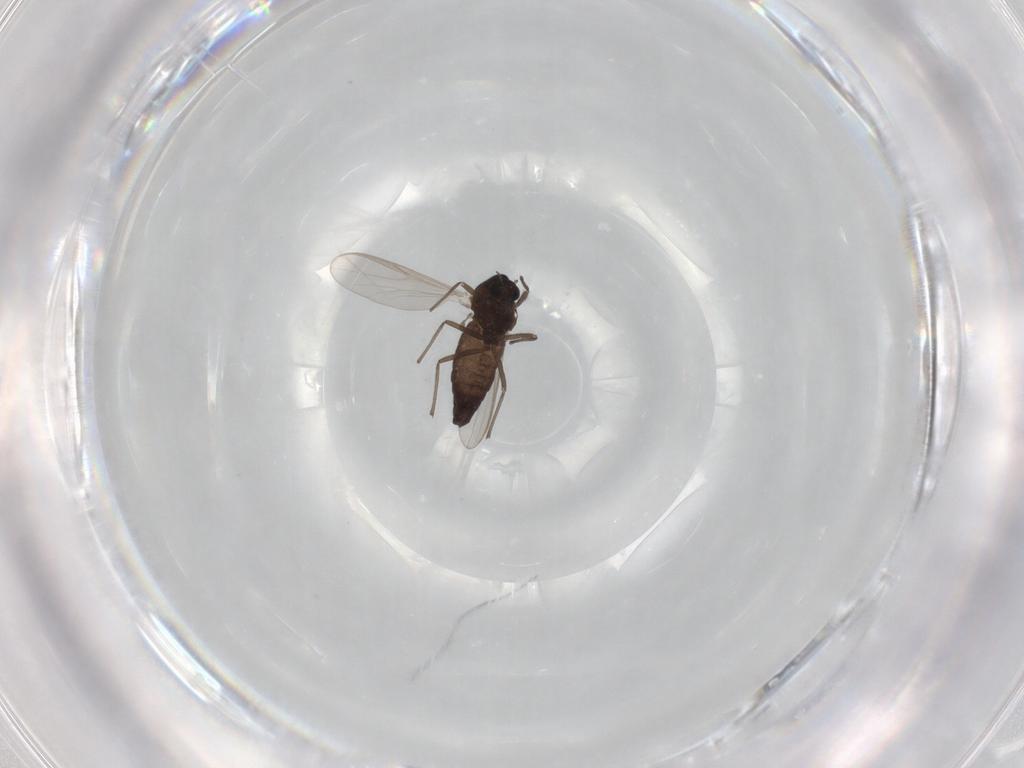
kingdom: Animalia
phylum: Arthropoda
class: Insecta
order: Diptera
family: Chironomidae
